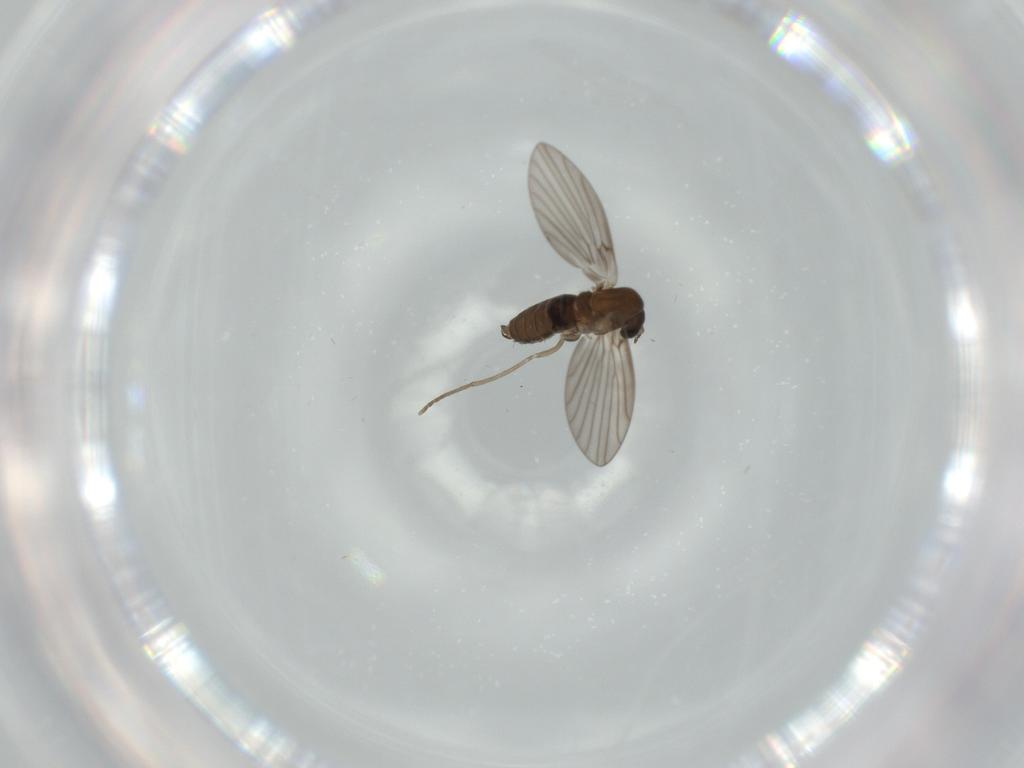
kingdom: Animalia
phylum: Arthropoda
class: Insecta
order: Diptera
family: Psychodidae
